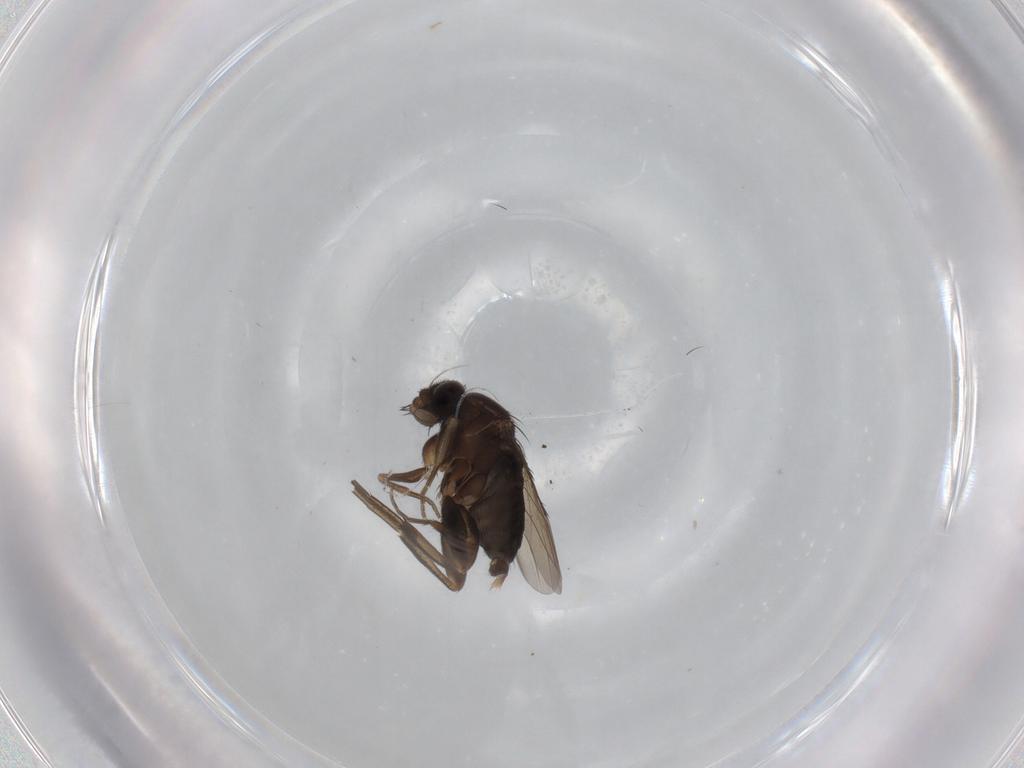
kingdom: Animalia
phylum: Arthropoda
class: Insecta
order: Diptera
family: Phoridae
